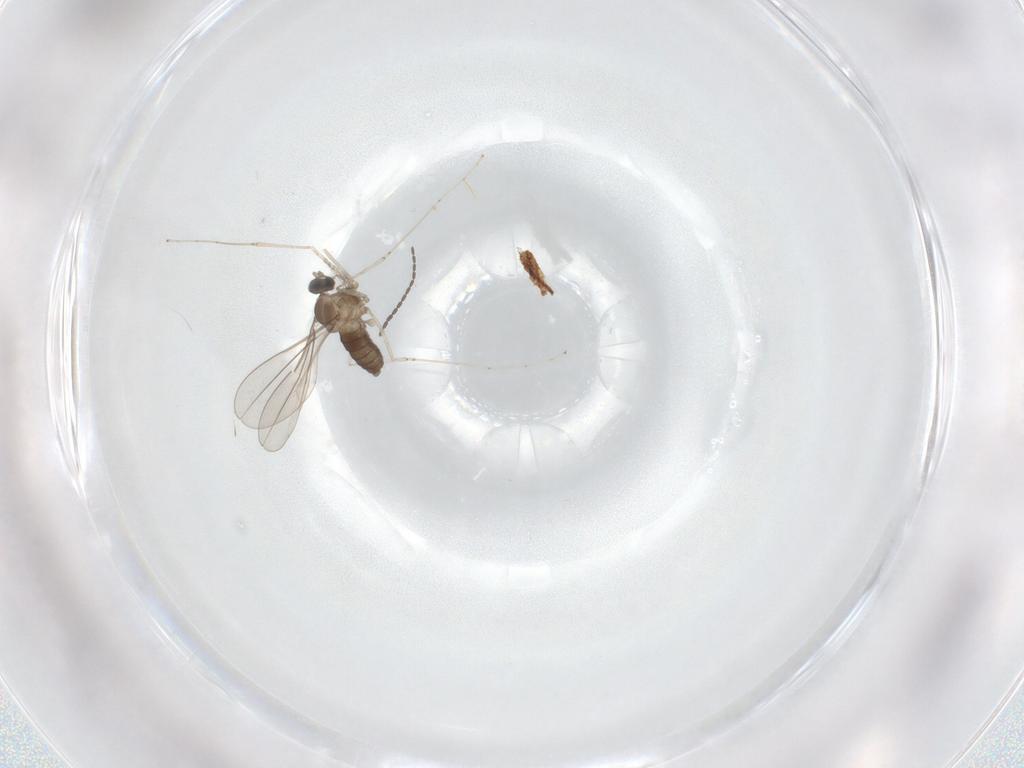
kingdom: Animalia
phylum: Arthropoda
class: Insecta
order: Diptera
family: Cecidomyiidae
